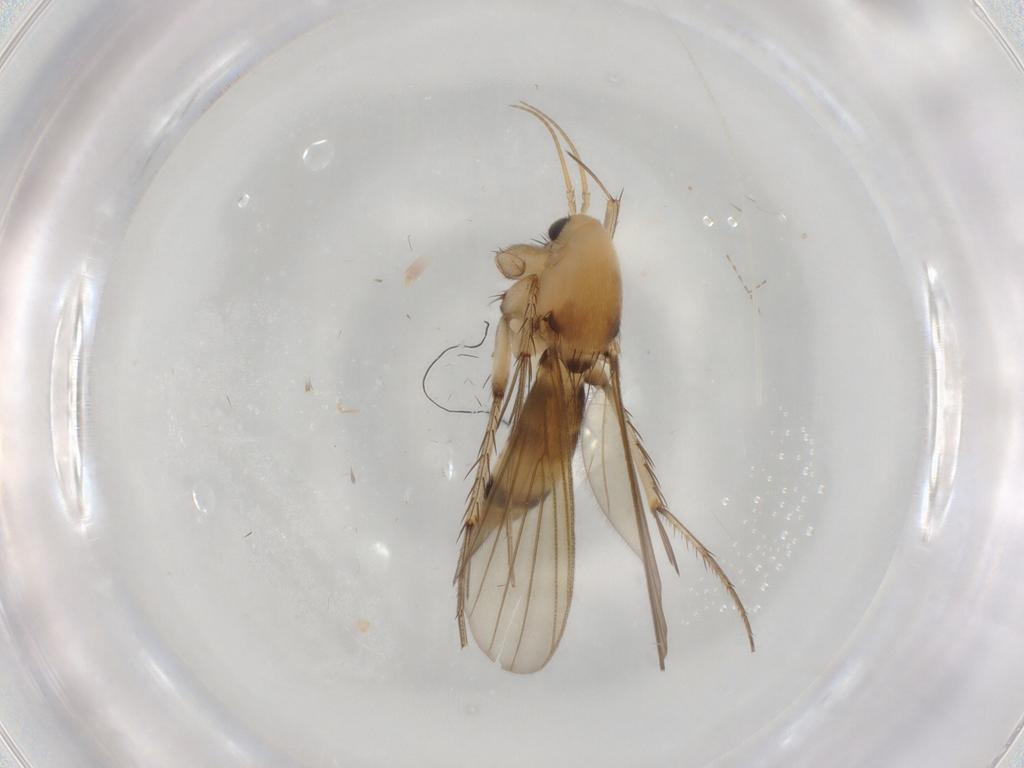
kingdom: Animalia
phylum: Arthropoda
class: Insecta
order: Diptera
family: Mycetophilidae
